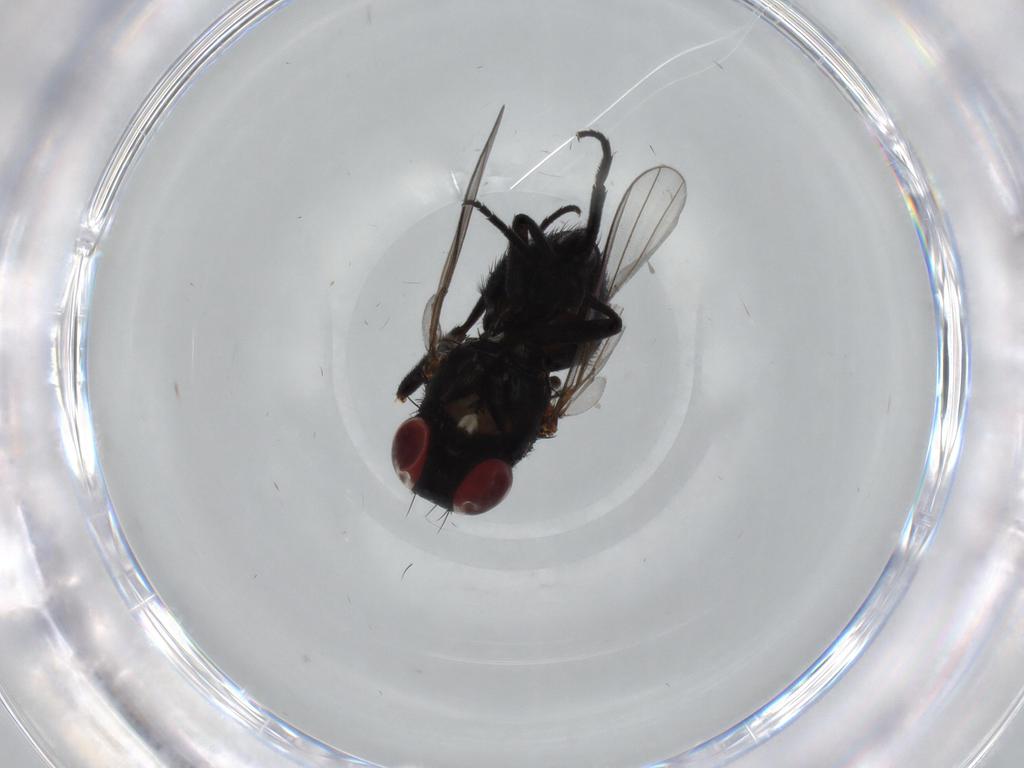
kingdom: Animalia
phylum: Arthropoda
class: Insecta
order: Diptera
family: Agromyzidae
